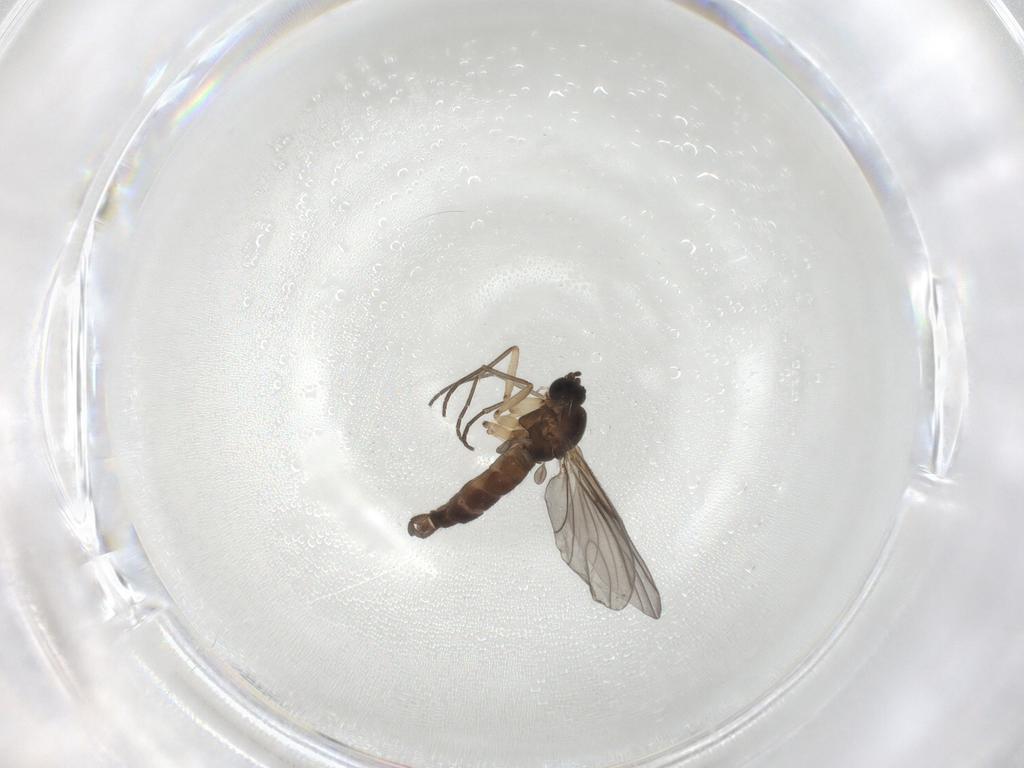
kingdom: Animalia
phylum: Arthropoda
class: Insecta
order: Diptera
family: Sciaridae
